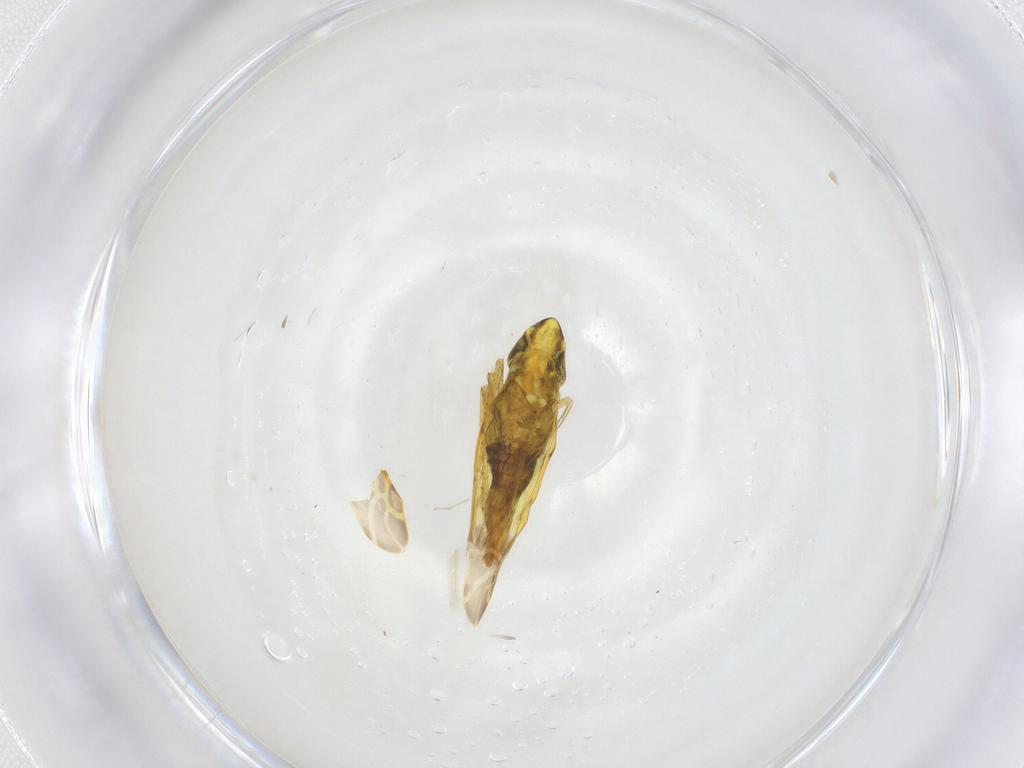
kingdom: Animalia
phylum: Arthropoda
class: Insecta
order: Hemiptera
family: Cicadellidae
